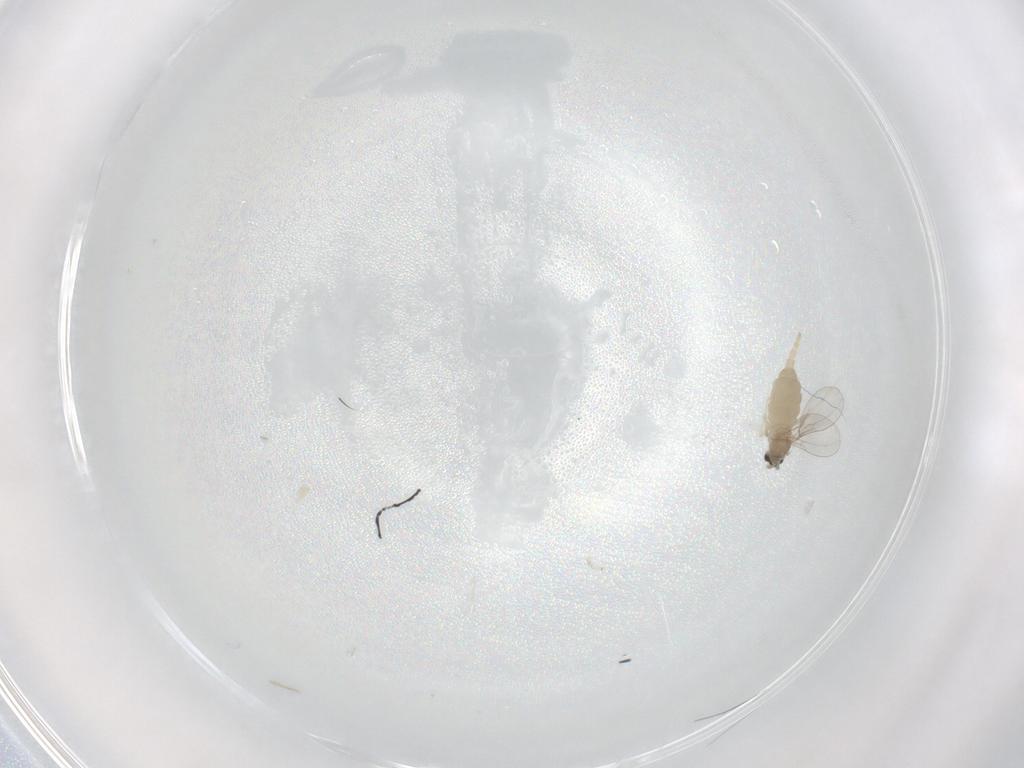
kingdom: Animalia
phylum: Arthropoda
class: Insecta
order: Diptera
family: Cecidomyiidae
